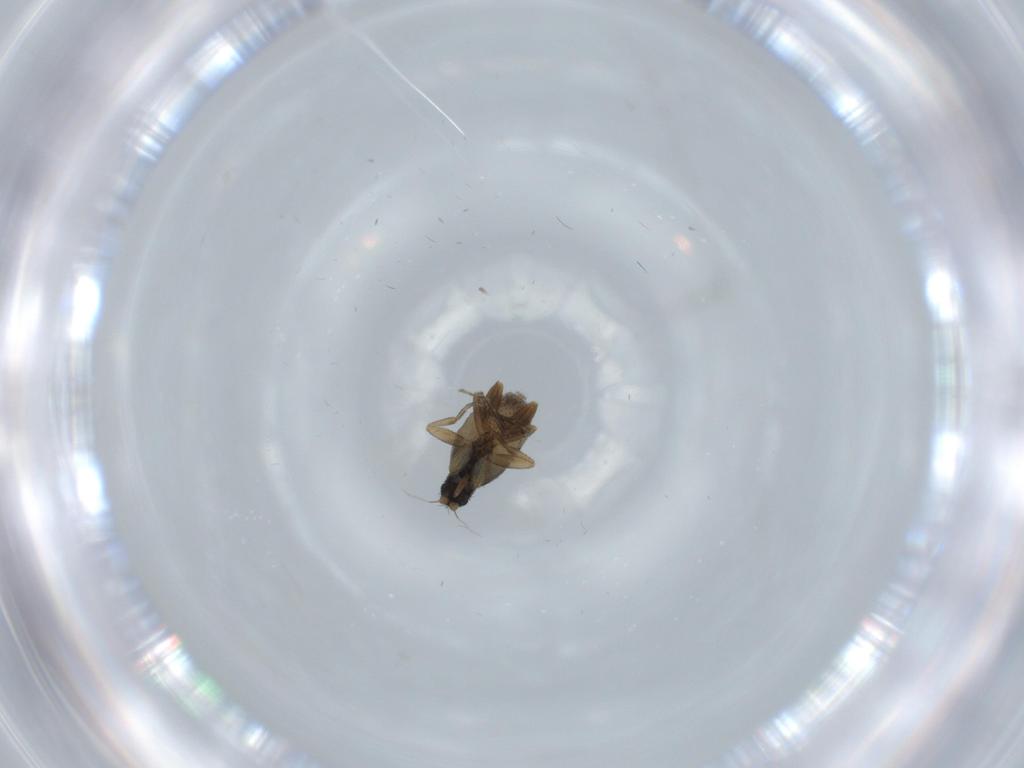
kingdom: Animalia
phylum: Arthropoda
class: Insecta
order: Diptera
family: Phoridae
